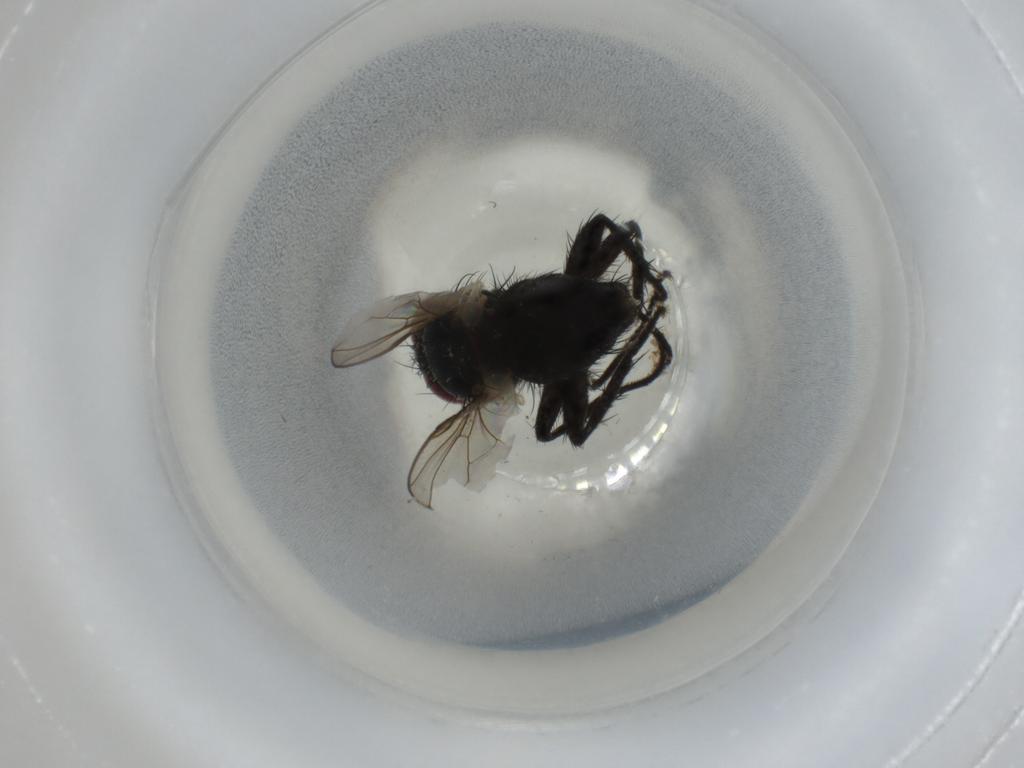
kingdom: Animalia
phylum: Arthropoda
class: Insecta
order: Diptera
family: Tachinidae
